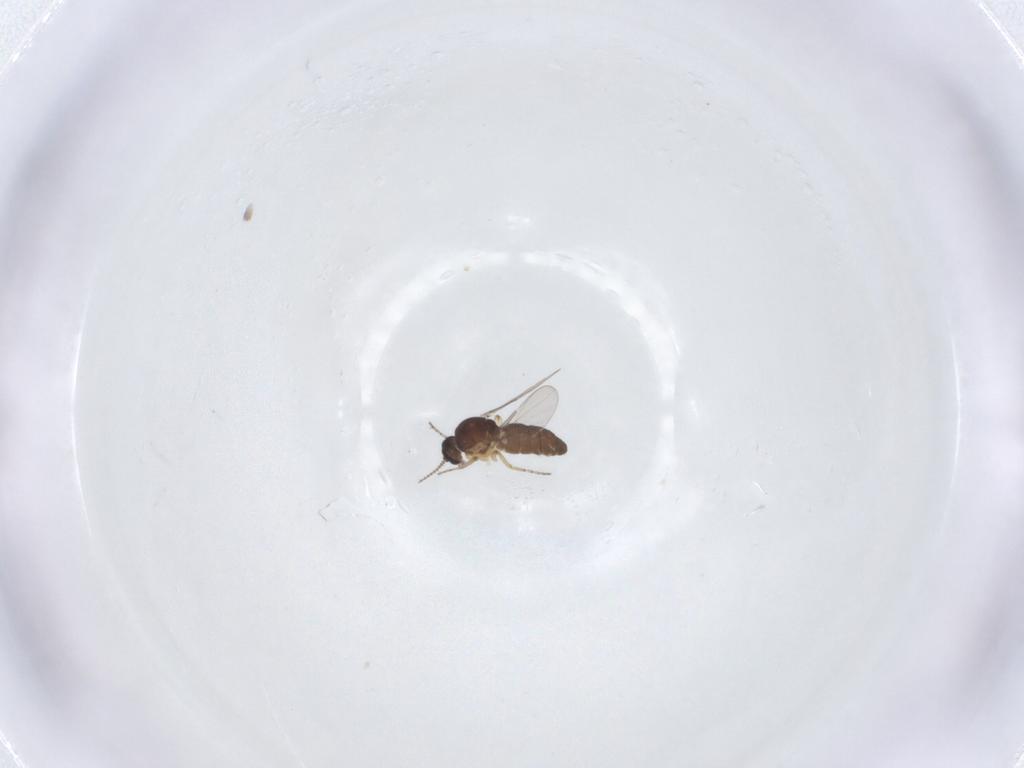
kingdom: Animalia
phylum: Arthropoda
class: Insecta
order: Diptera
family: Ceratopogonidae
